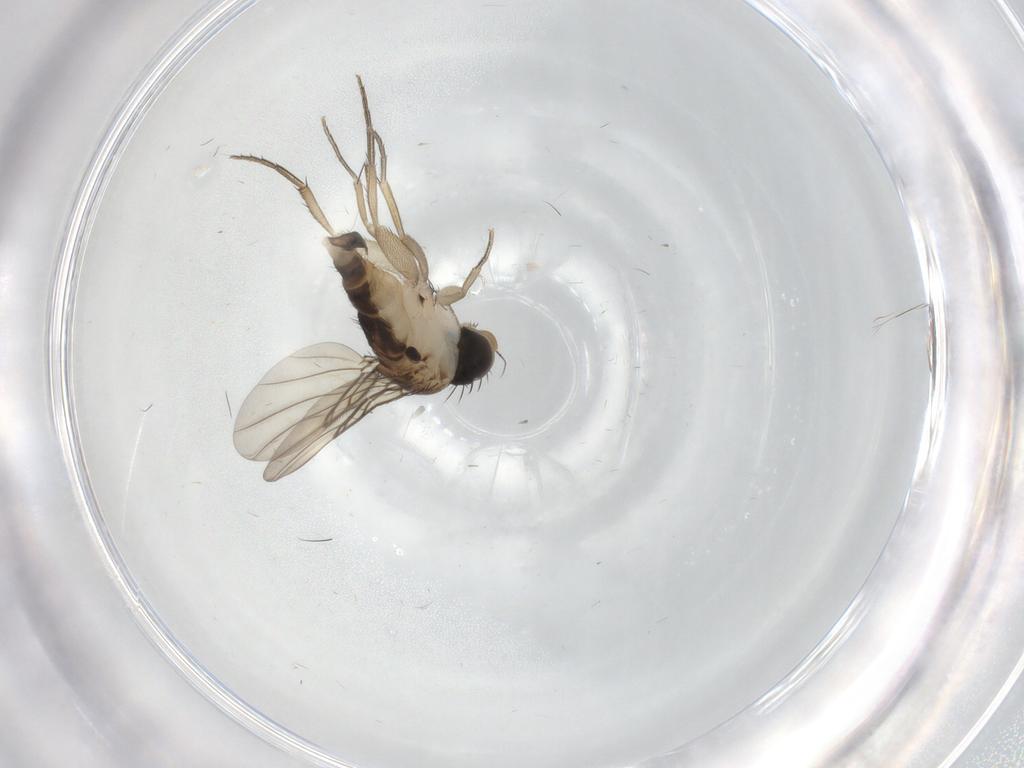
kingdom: Animalia
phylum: Arthropoda
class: Insecta
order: Diptera
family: Phoridae
